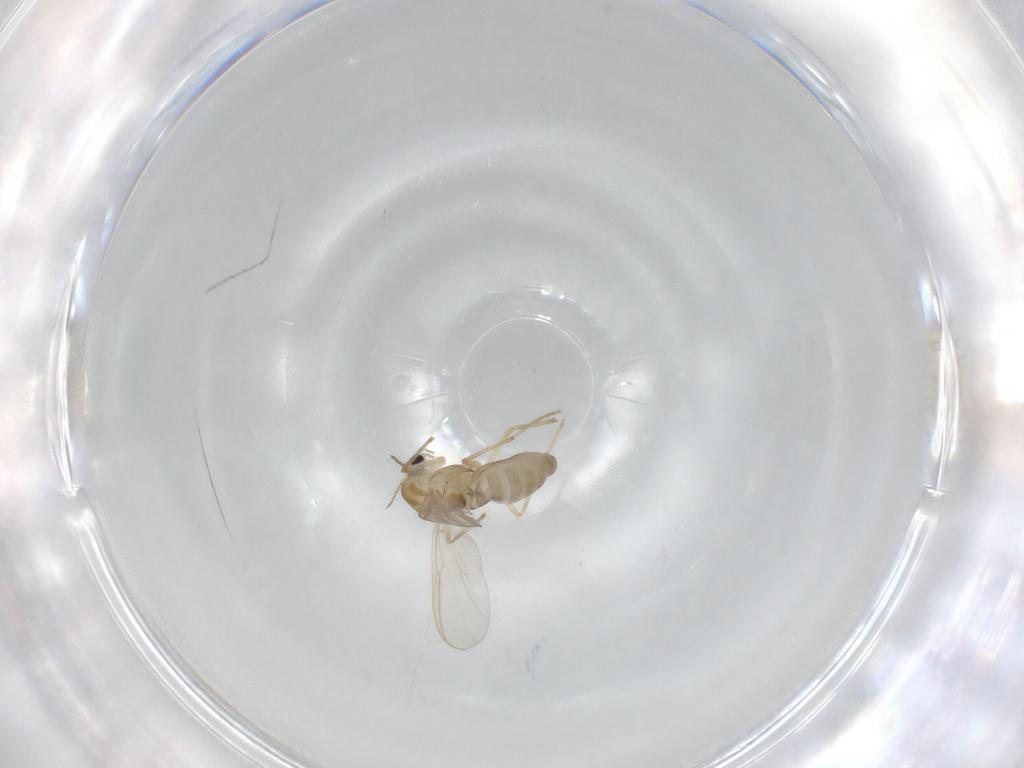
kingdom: Animalia
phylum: Arthropoda
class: Insecta
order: Diptera
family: Chironomidae
